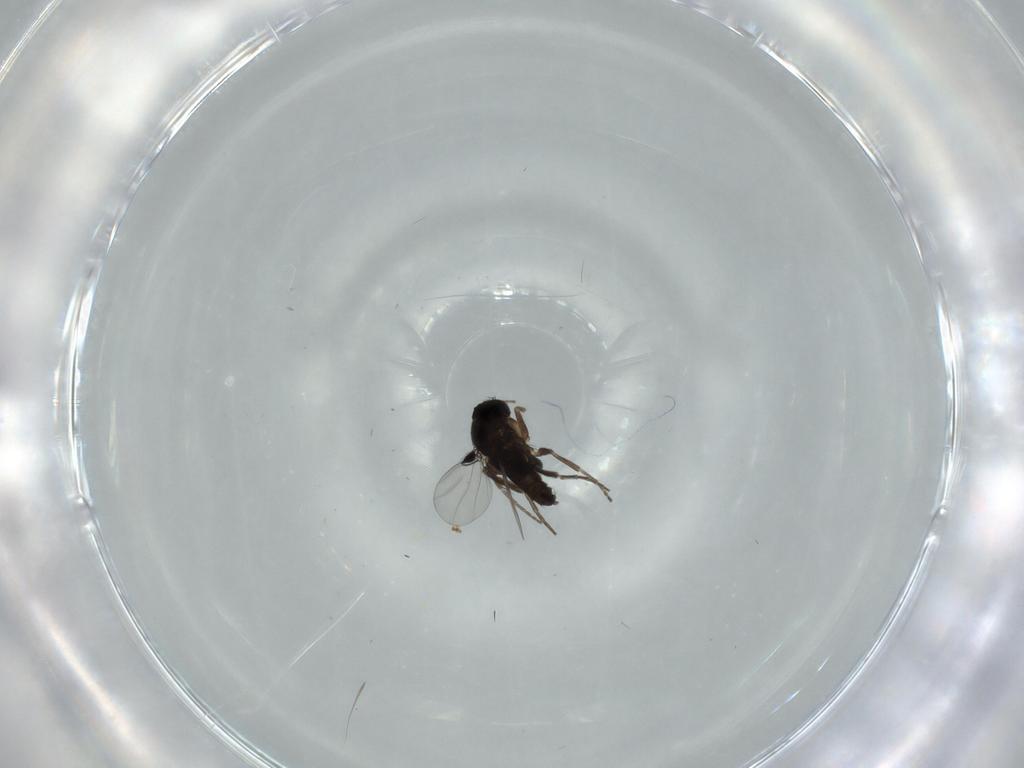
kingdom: Animalia
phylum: Arthropoda
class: Insecta
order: Diptera
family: Phoridae
